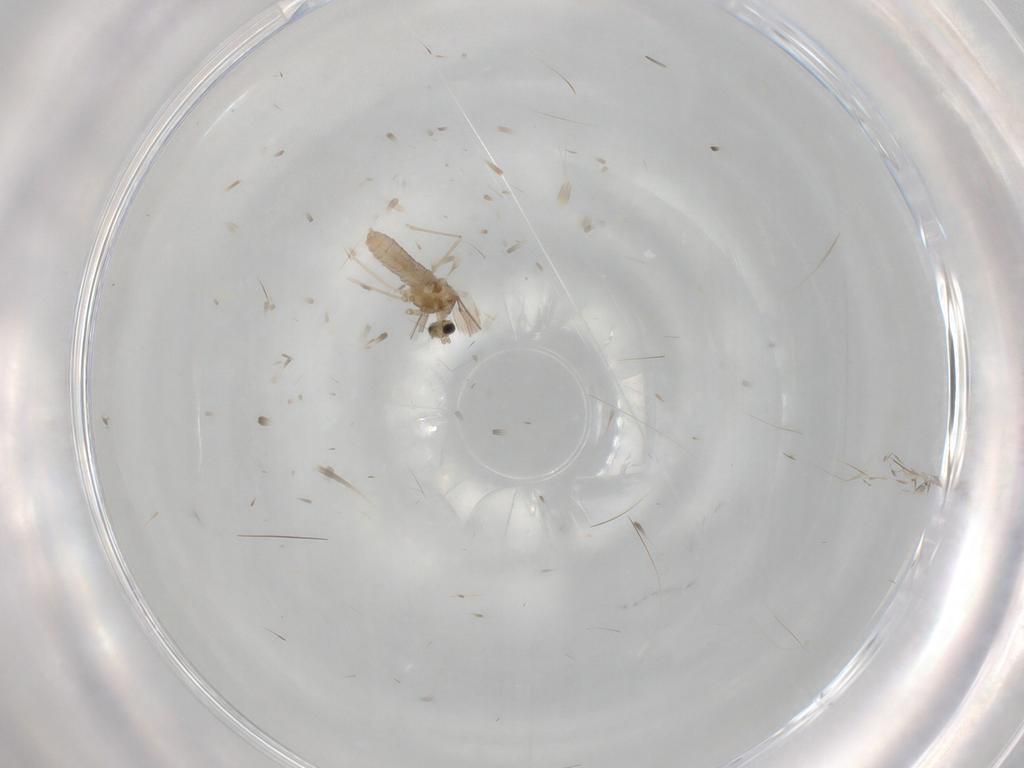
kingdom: Animalia
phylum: Arthropoda
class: Insecta
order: Diptera
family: Cecidomyiidae
